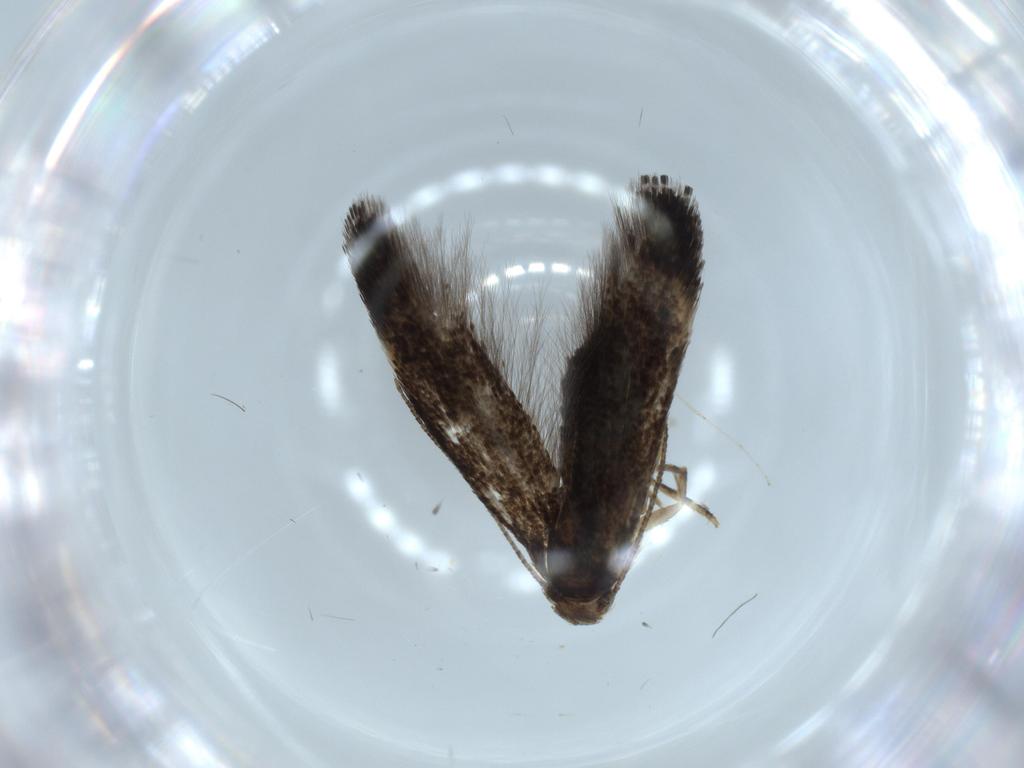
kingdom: Animalia
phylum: Arthropoda
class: Insecta
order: Lepidoptera
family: Gelechiidae
